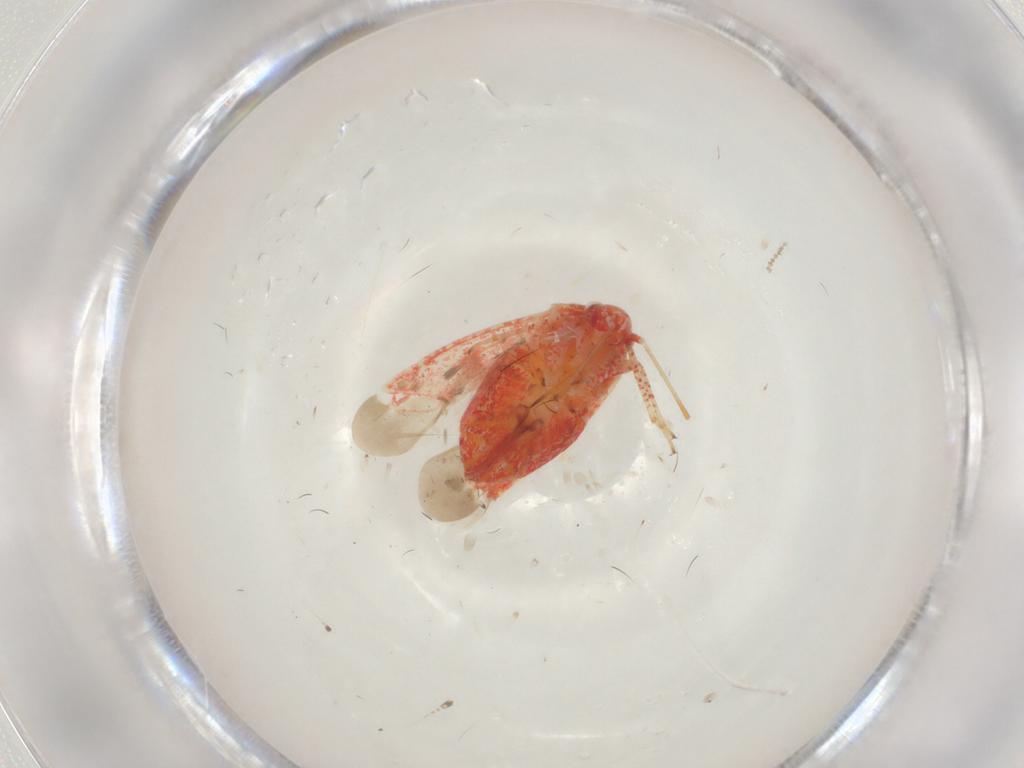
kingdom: Animalia
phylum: Arthropoda
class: Insecta
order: Hemiptera
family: Miridae
